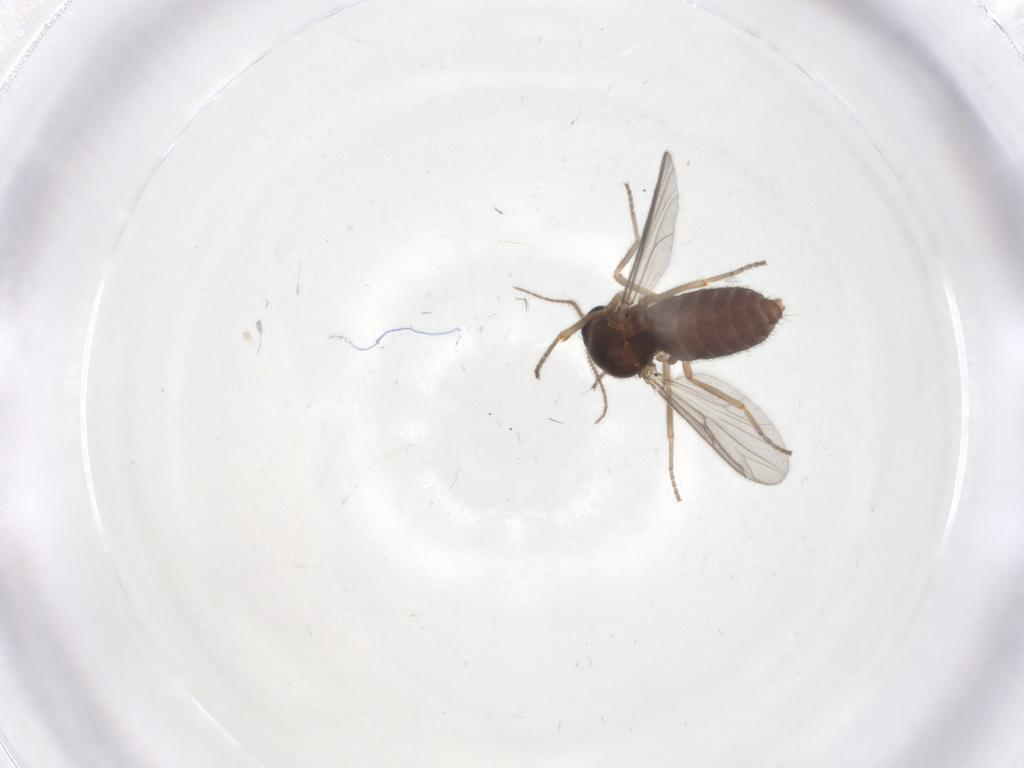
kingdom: Animalia
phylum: Arthropoda
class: Insecta
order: Diptera
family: Ceratopogonidae
